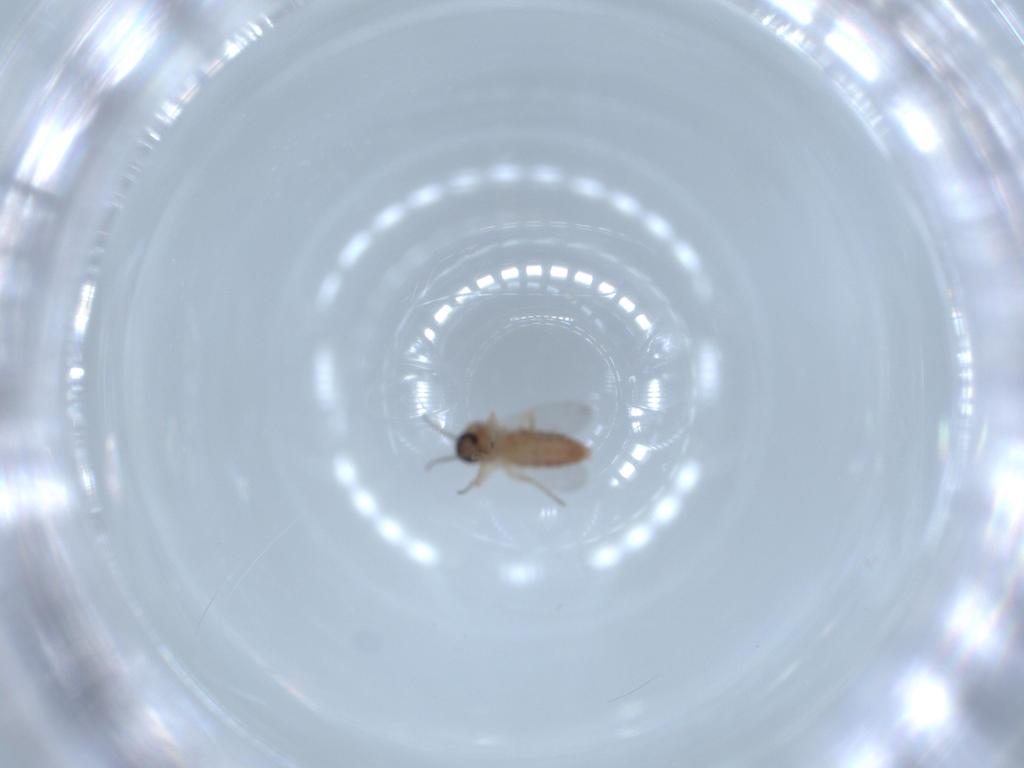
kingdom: Animalia
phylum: Arthropoda
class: Insecta
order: Diptera
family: Ceratopogonidae
